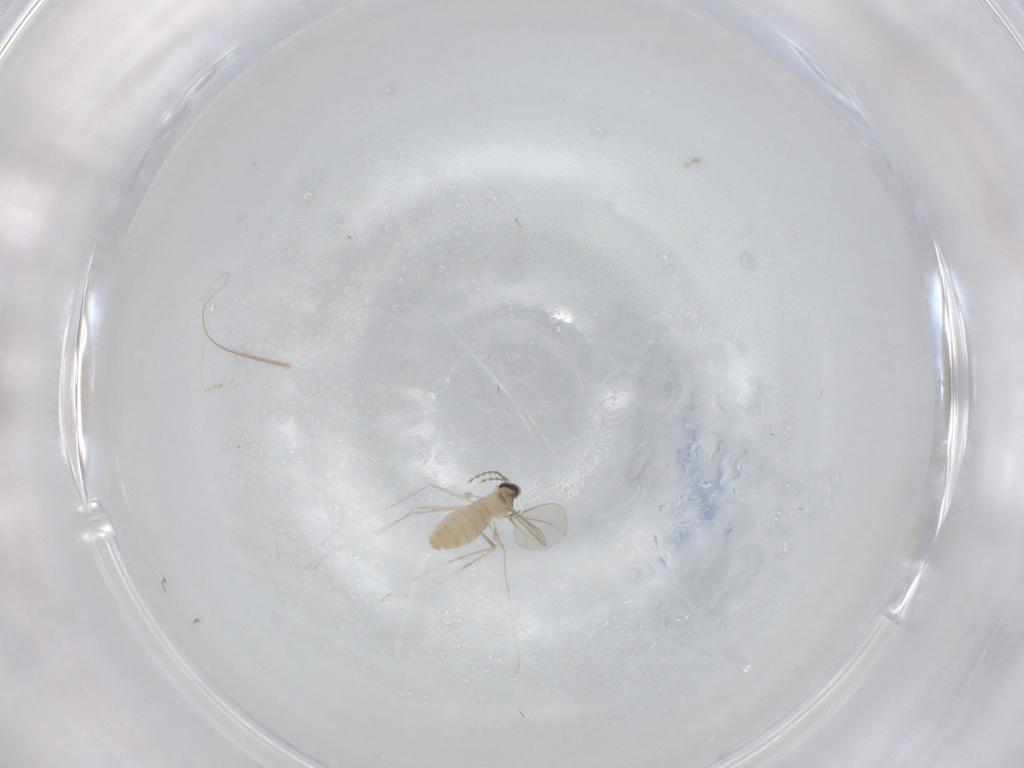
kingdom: Animalia
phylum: Arthropoda
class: Insecta
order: Diptera
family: Cecidomyiidae
